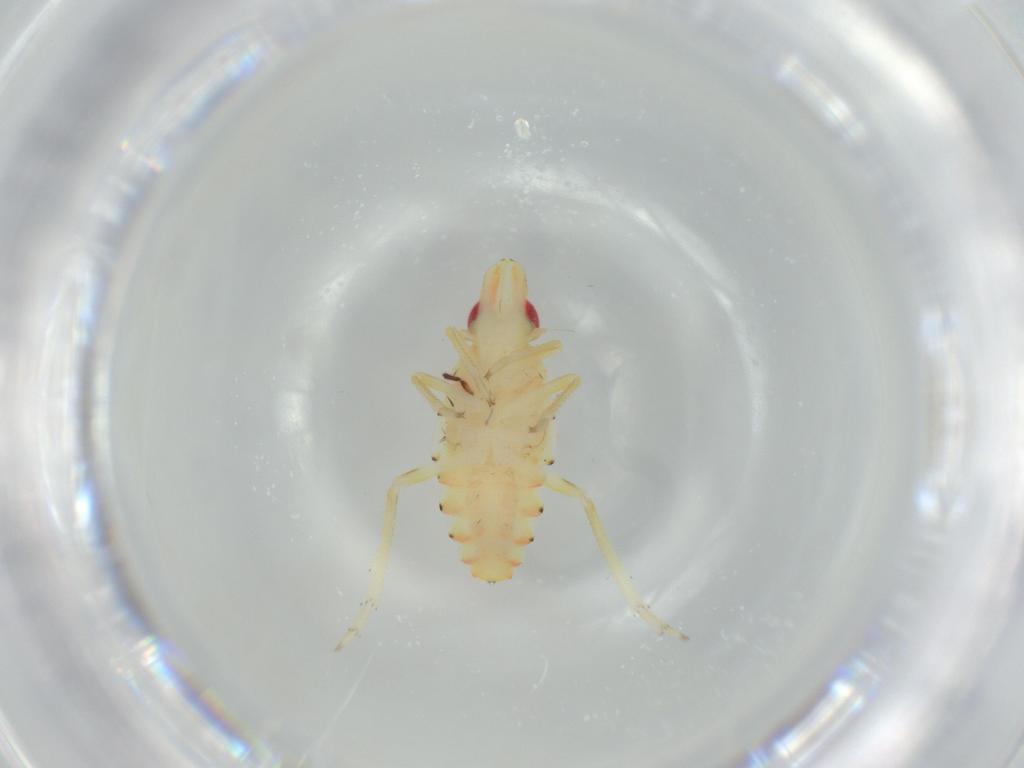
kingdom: Animalia
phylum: Arthropoda
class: Insecta
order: Hemiptera
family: Tropiduchidae
